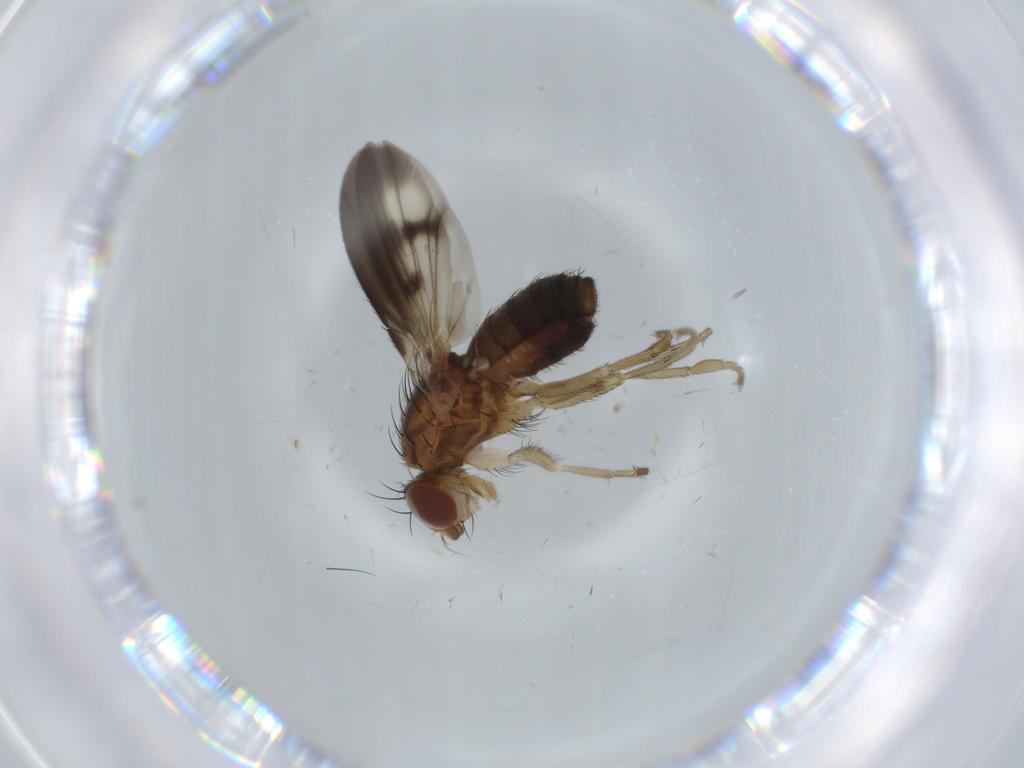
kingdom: Animalia
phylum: Arthropoda
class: Insecta
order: Diptera
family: Heleomyzidae
